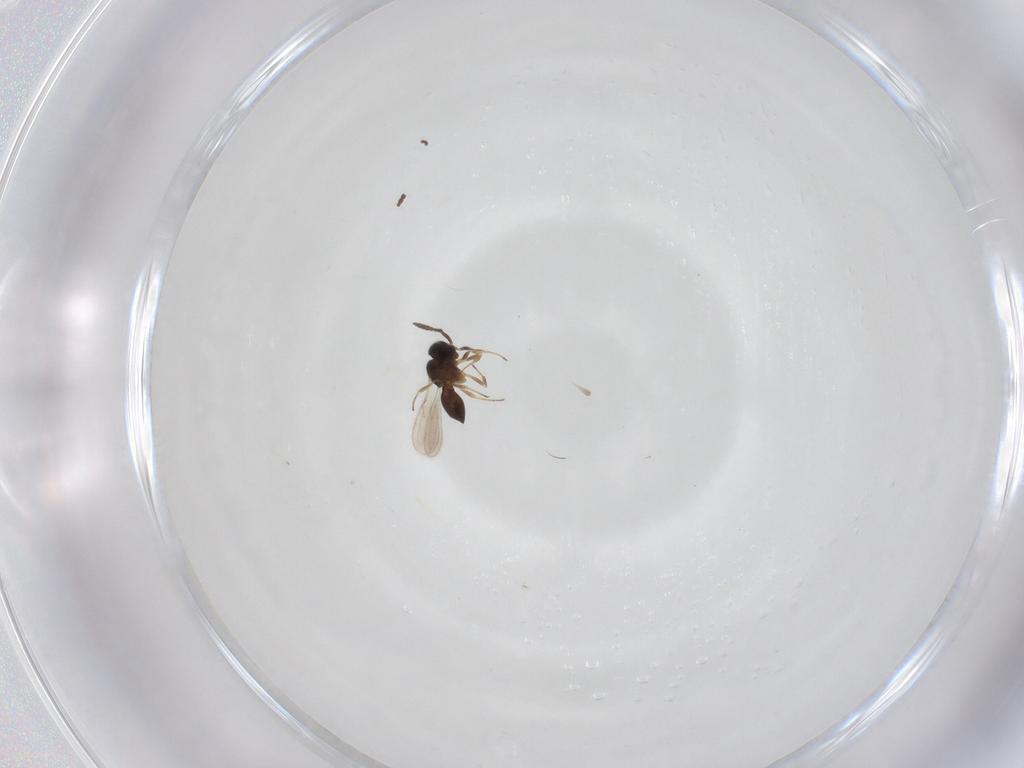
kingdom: Animalia
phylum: Arthropoda
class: Insecta
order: Hymenoptera
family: Scelionidae
